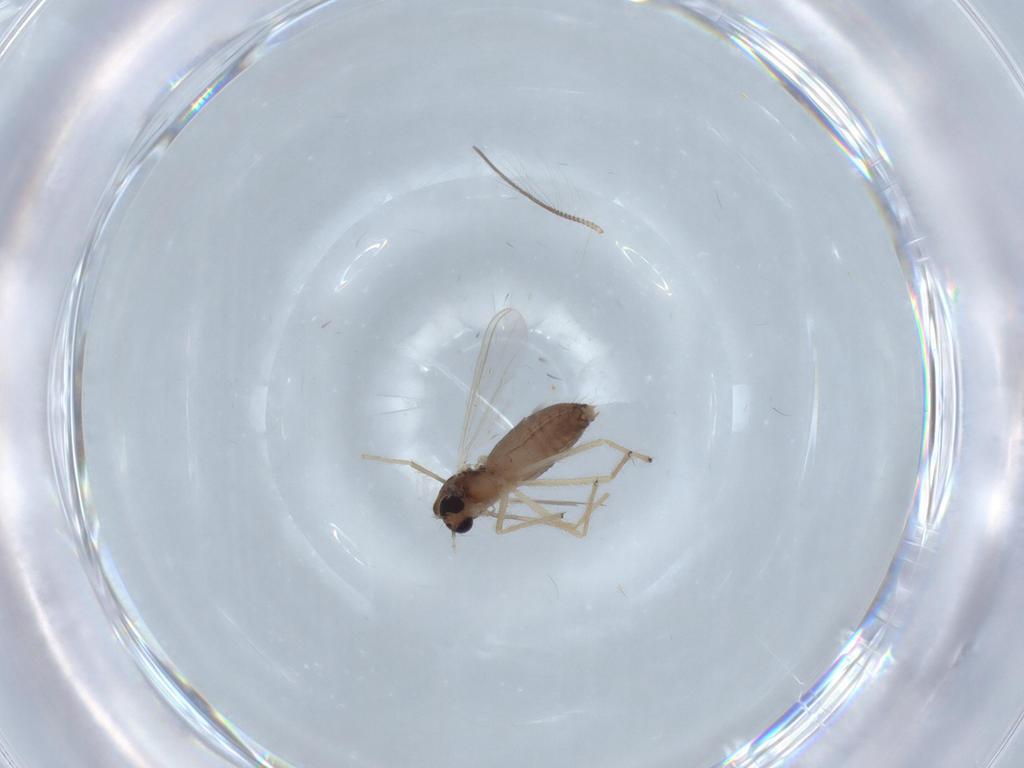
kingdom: Animalia
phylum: Arthropoda
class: Insecta
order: Diptera
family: Chironomidae
